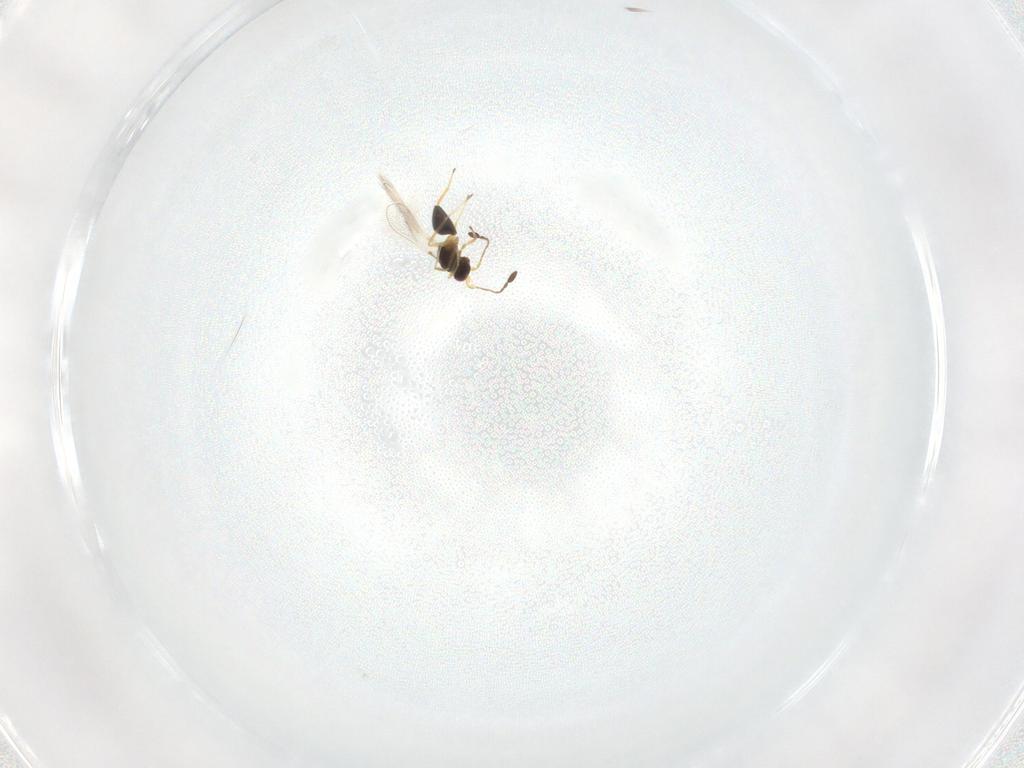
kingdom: Animalia
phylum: Arthropoda
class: Insecta
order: Hymenoptera
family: Mymaridae
